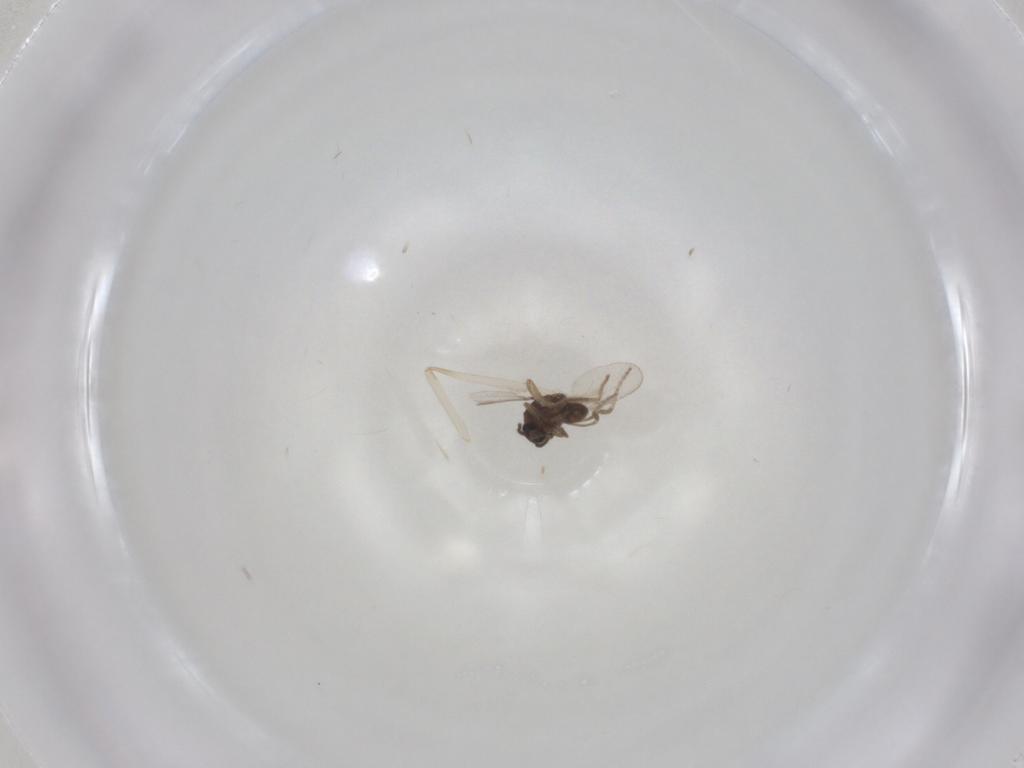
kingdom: Animalia
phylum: Arthropoda
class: Insecta
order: Diptera
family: Ceratopogonidae
